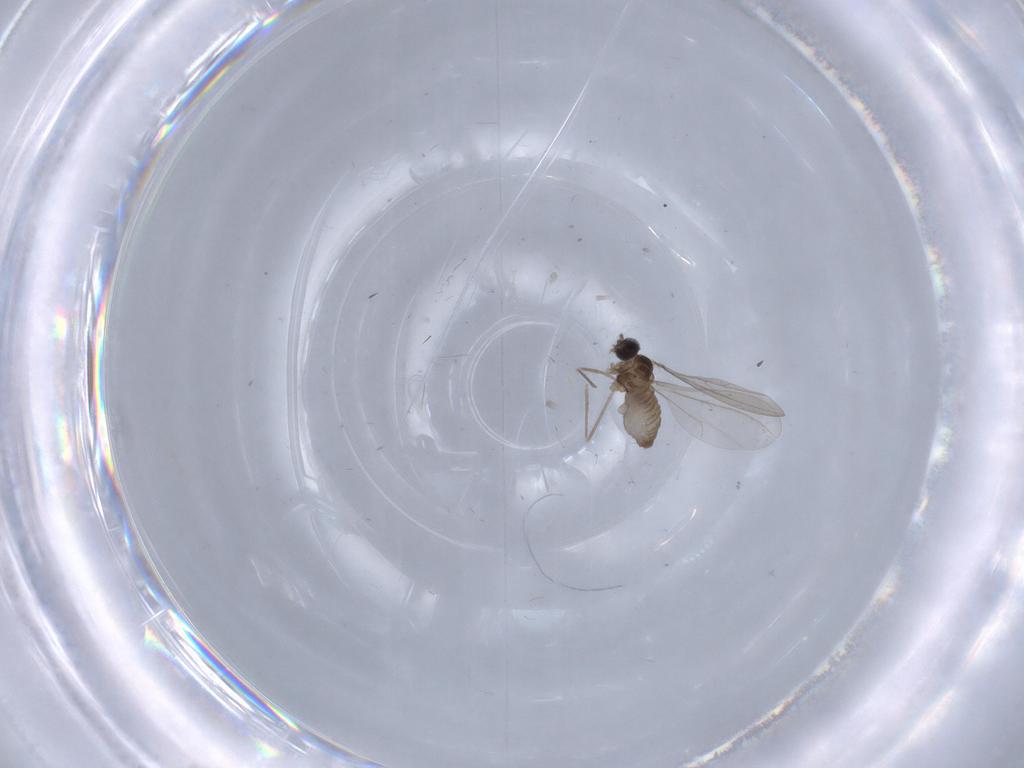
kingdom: Animalia
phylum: Arthropoda
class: Insecta
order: Diptera
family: Cecidomyiidae
